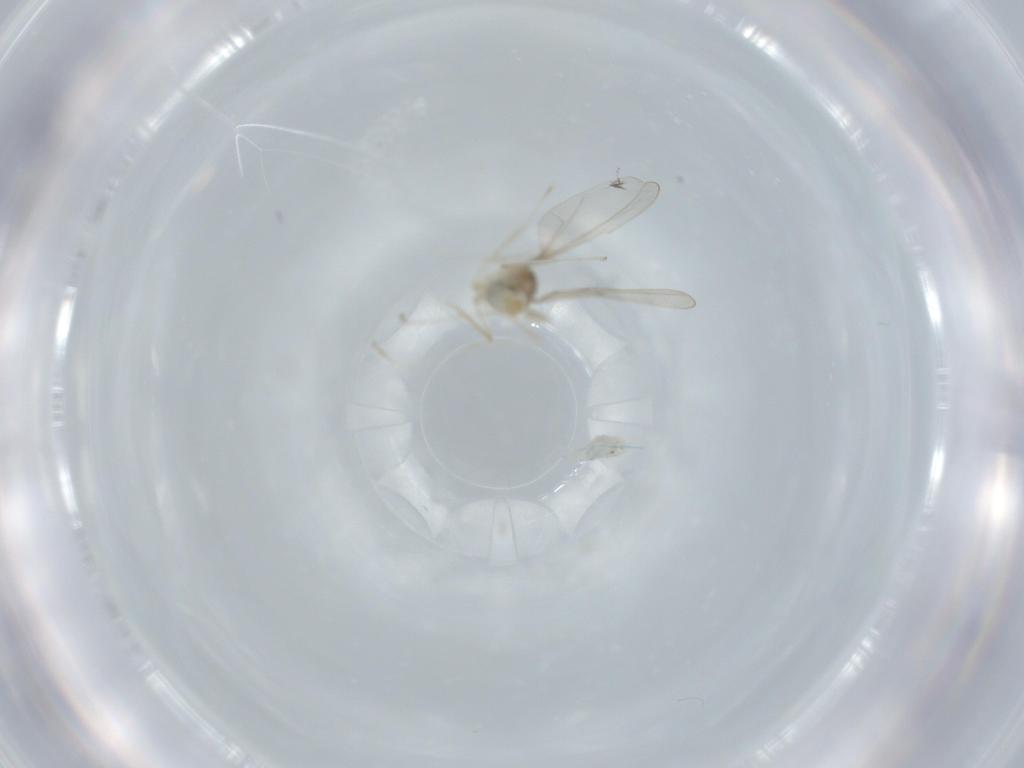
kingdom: Animalia
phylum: Arthropoda
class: Insecta
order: Diptera
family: Cecidomyiidae
